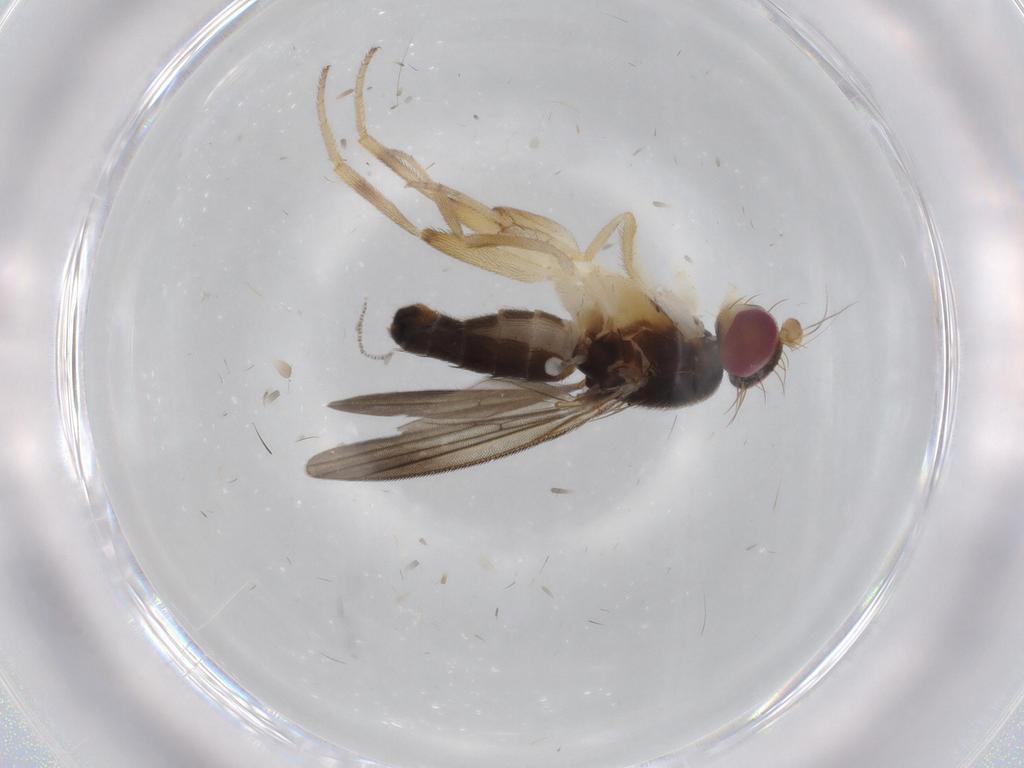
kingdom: Animalia
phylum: Arthropoda
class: Insecta
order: Diptera
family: Clusiidae
